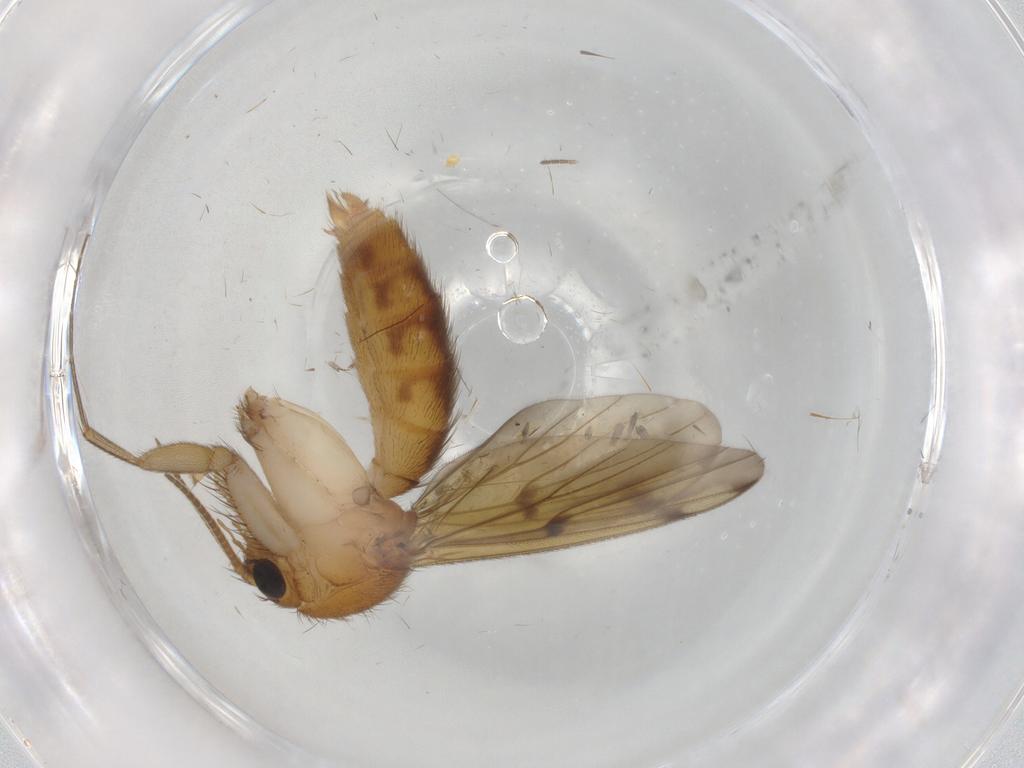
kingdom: Animalia
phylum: Arthropoda
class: Insecta
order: Diptera
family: Mycetophilidae
